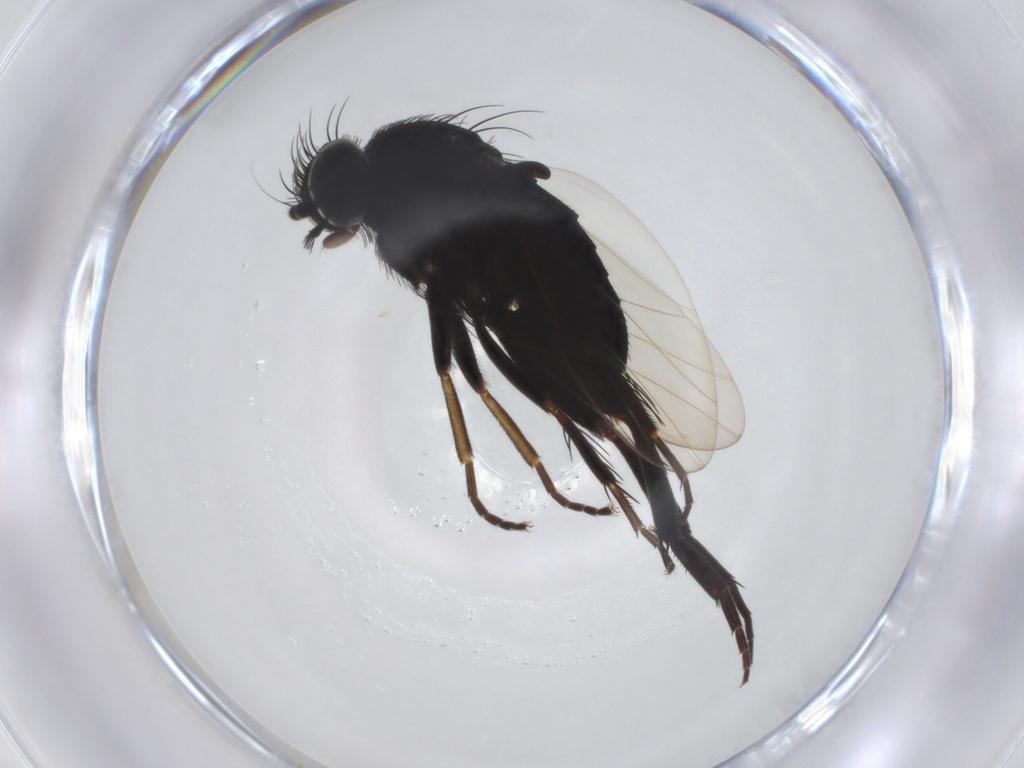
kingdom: Animalia
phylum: Arthropoda
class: Insecta
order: Diptera
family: Phoridae
